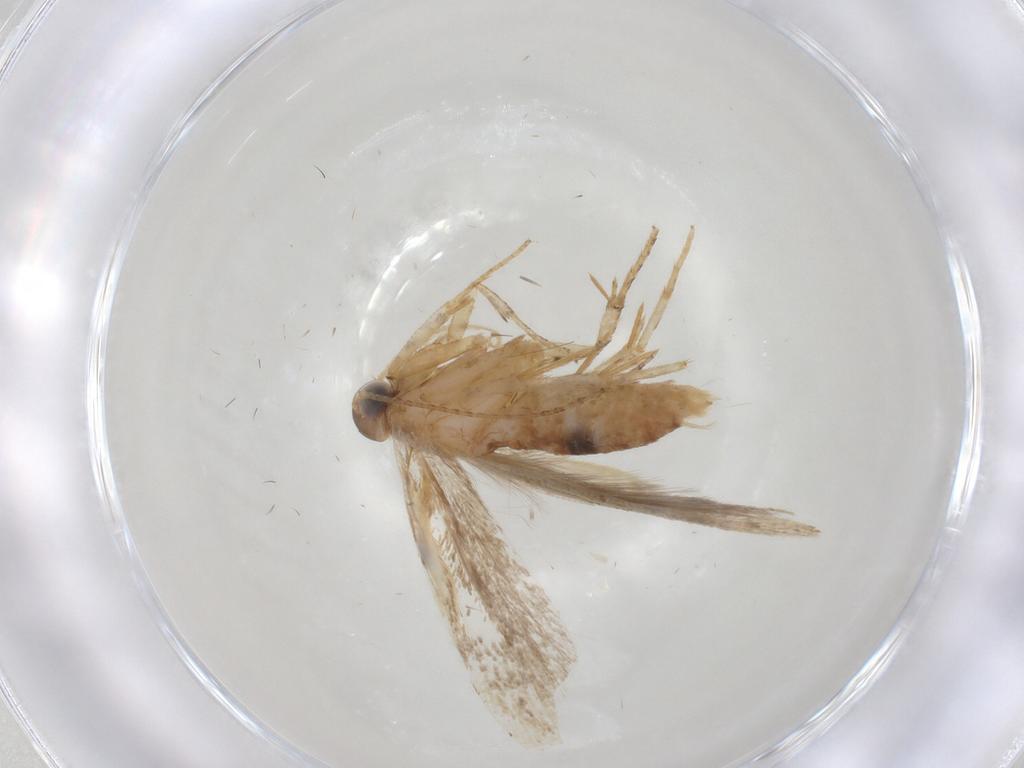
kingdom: Animalia
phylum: Arthropoda
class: Insecta
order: Lepidoptera
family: Gelechiidae
